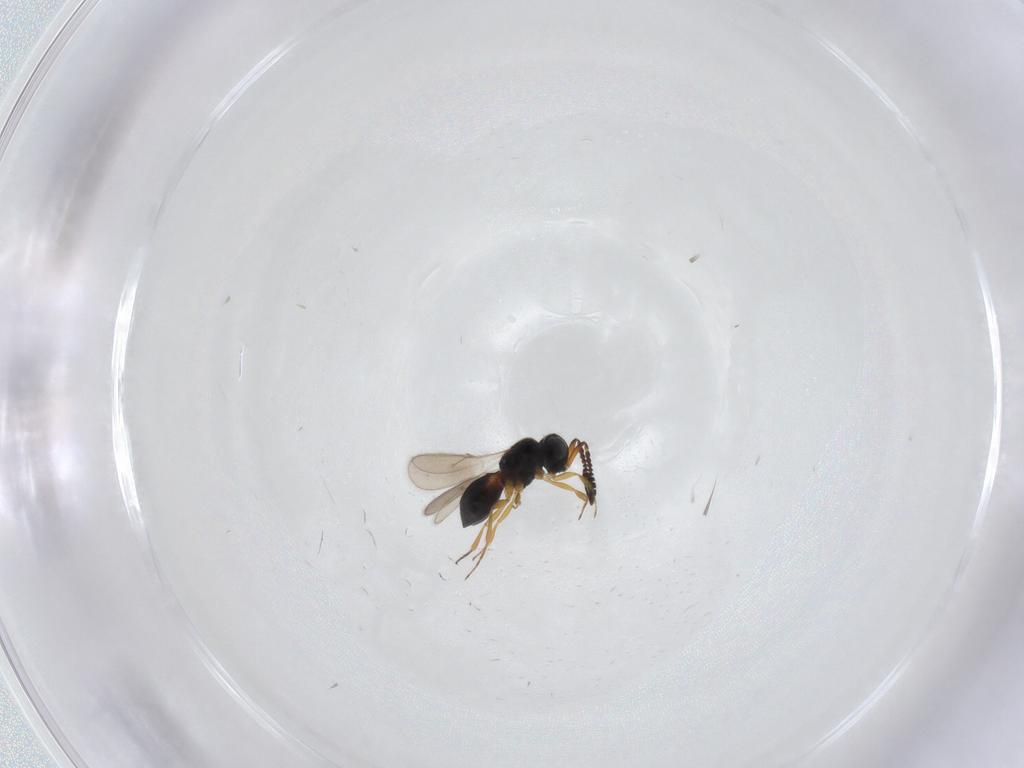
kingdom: Animalia
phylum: Arthropoda
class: Insecta
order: Hymenoptera
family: Scelionidae
